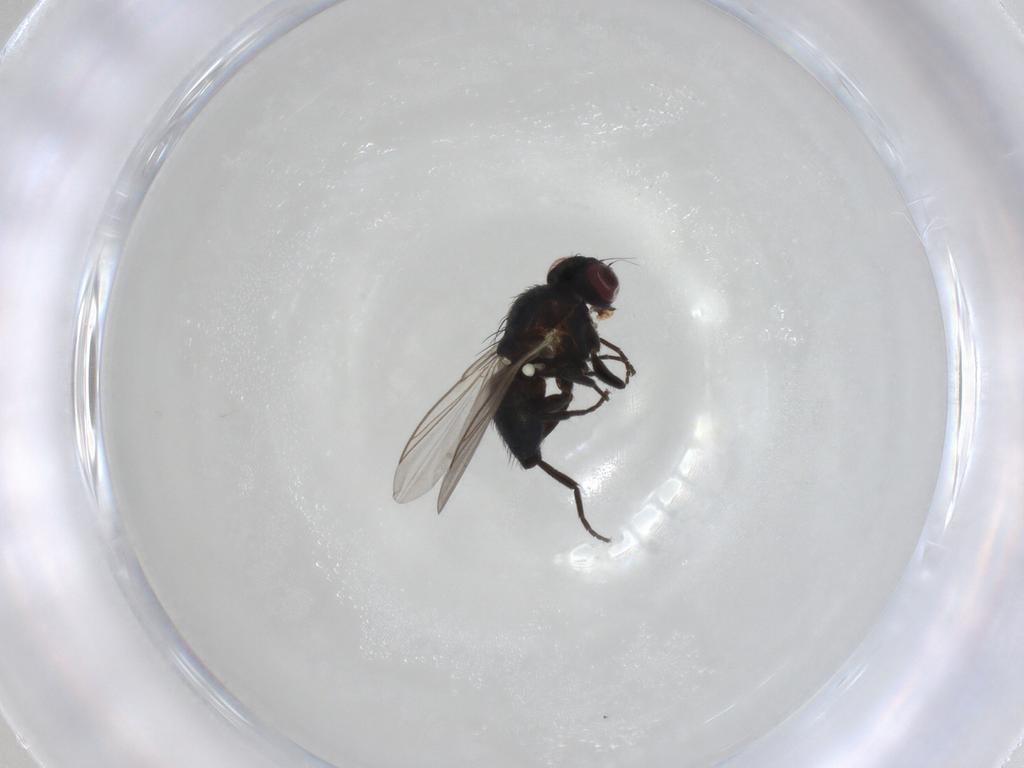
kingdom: Animalia
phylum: Arthropoda
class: Insecta
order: Diptera
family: Agromyzidae
